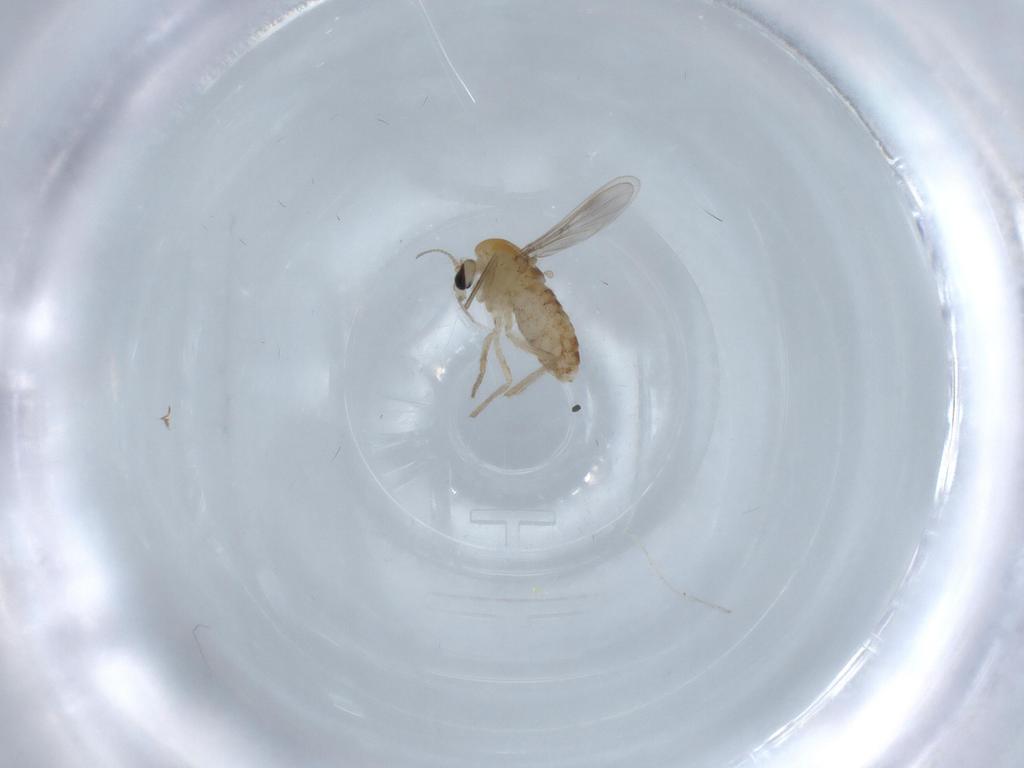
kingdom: Animalia
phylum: Arthropoda
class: Insecta
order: Diptera
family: Chironomidae
